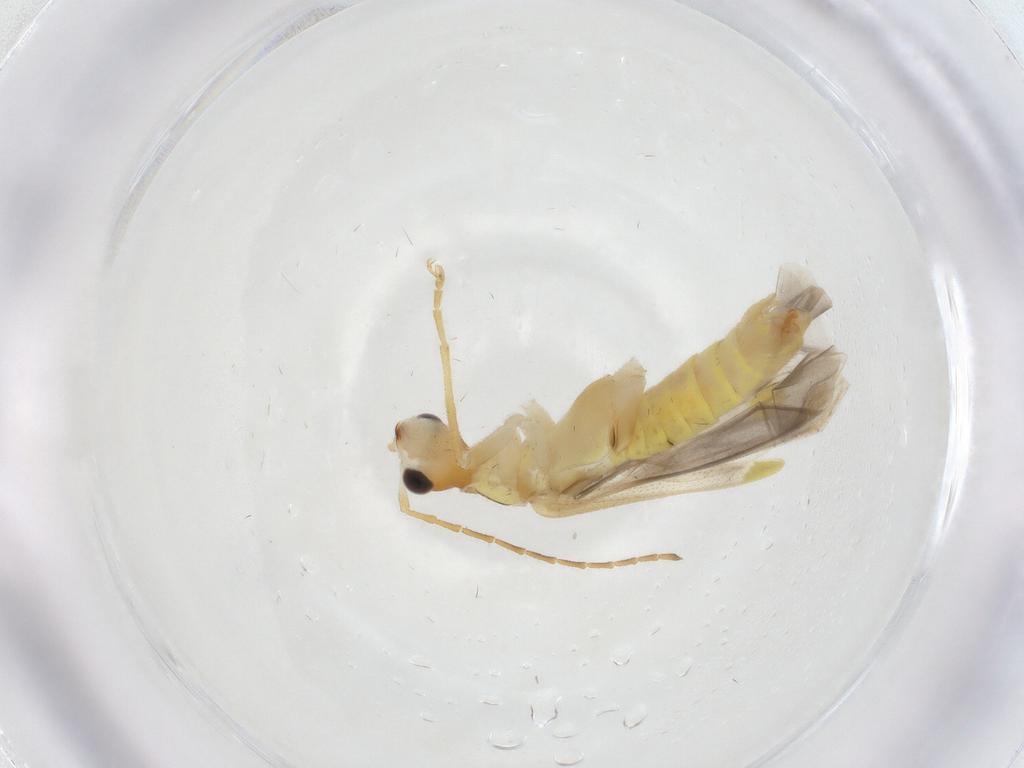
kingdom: Animalia
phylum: Arthropoda
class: Insecta
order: Coleoptera
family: Cantharidae
